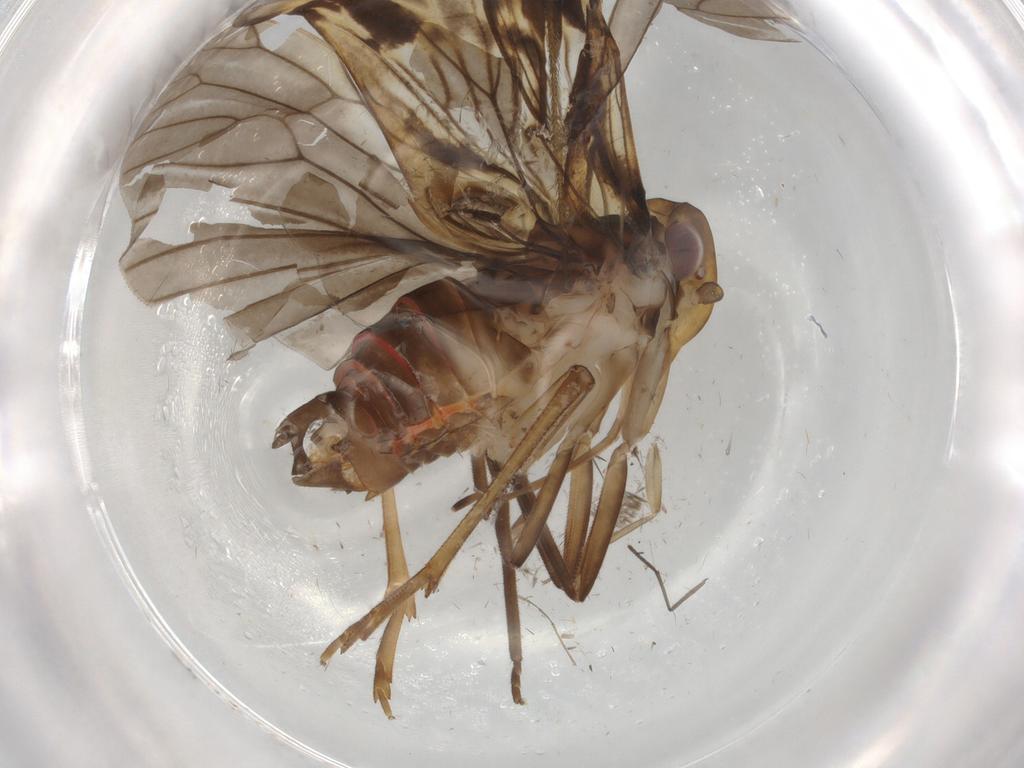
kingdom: Animalia
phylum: Arthropoda
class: Insecta
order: Hemiptera
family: Cixiidae
